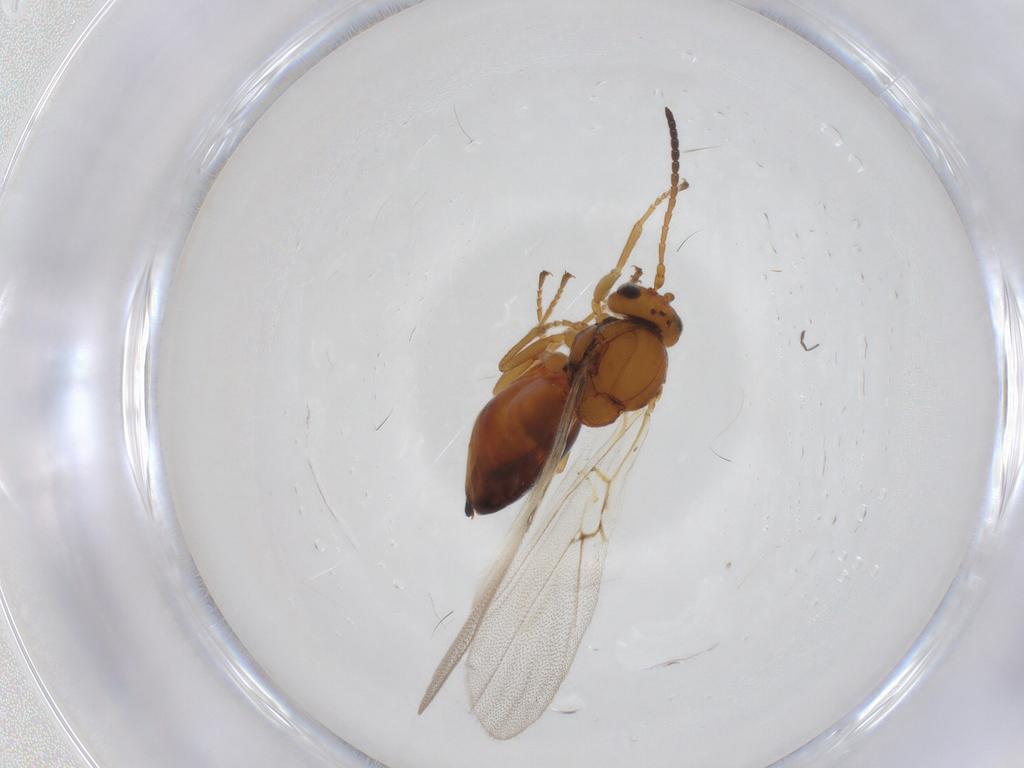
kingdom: Animalia
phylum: Arthropoda
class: Insecta
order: Hymenoptera
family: Cynipidae
